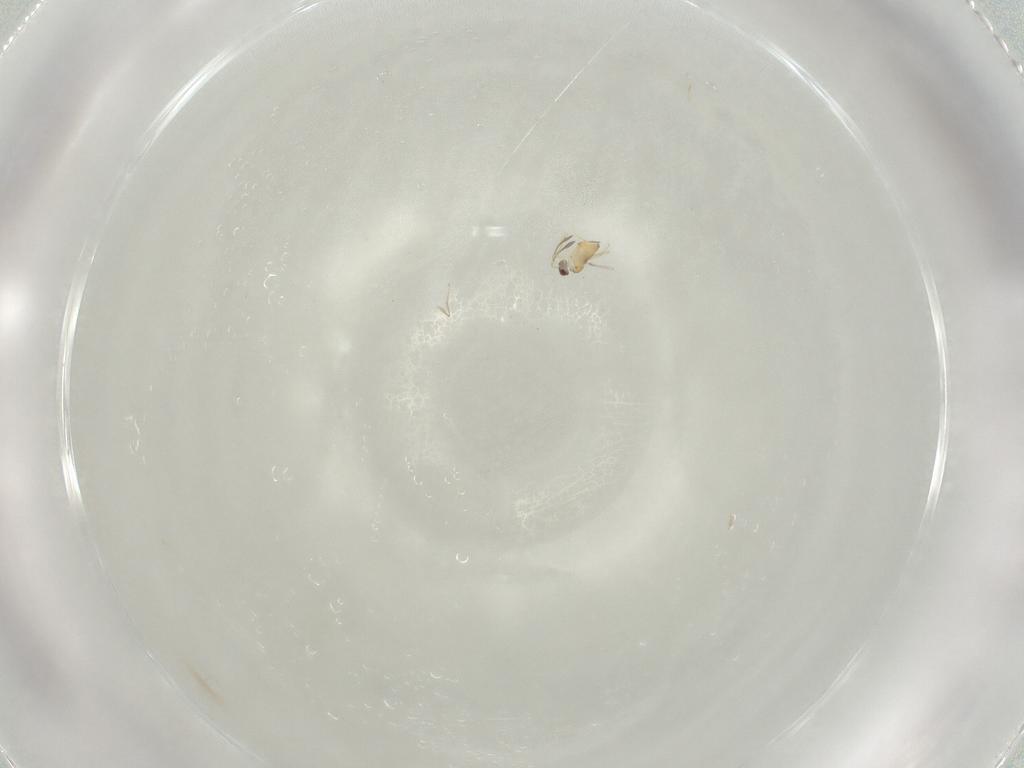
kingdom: Animalia
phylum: Arthropoda
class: Insecta
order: Hymenoptera
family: Mymaridae
